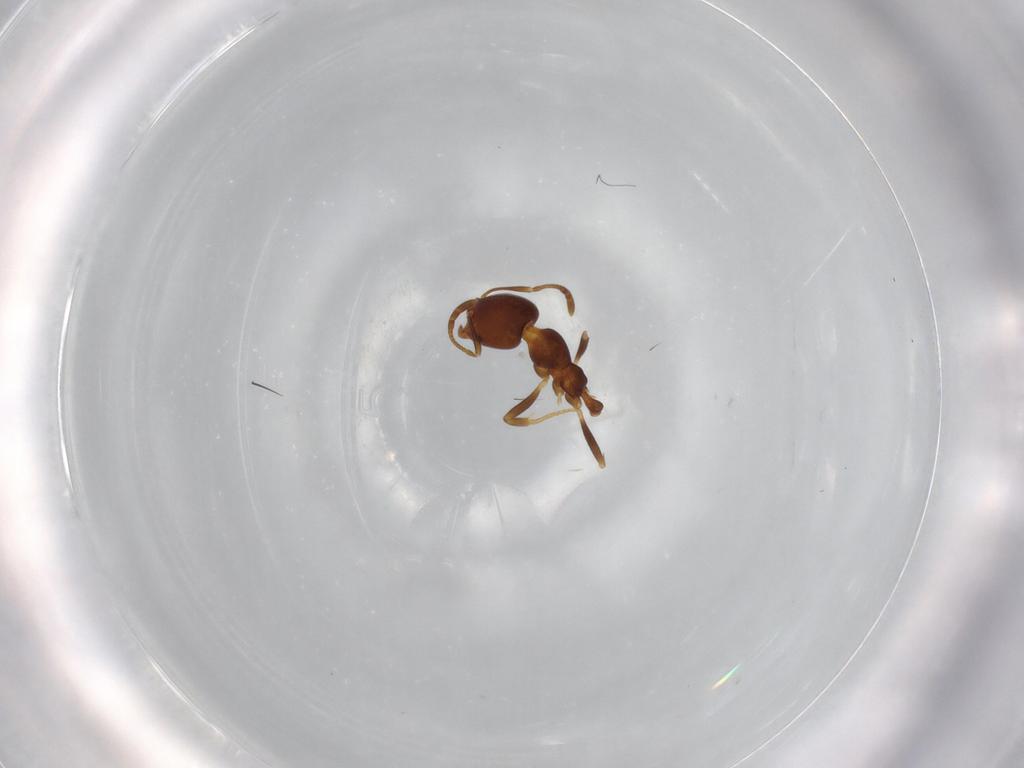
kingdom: Animalia
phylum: Arthropoda
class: Insecta
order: Hymenoptera
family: Formicidae
